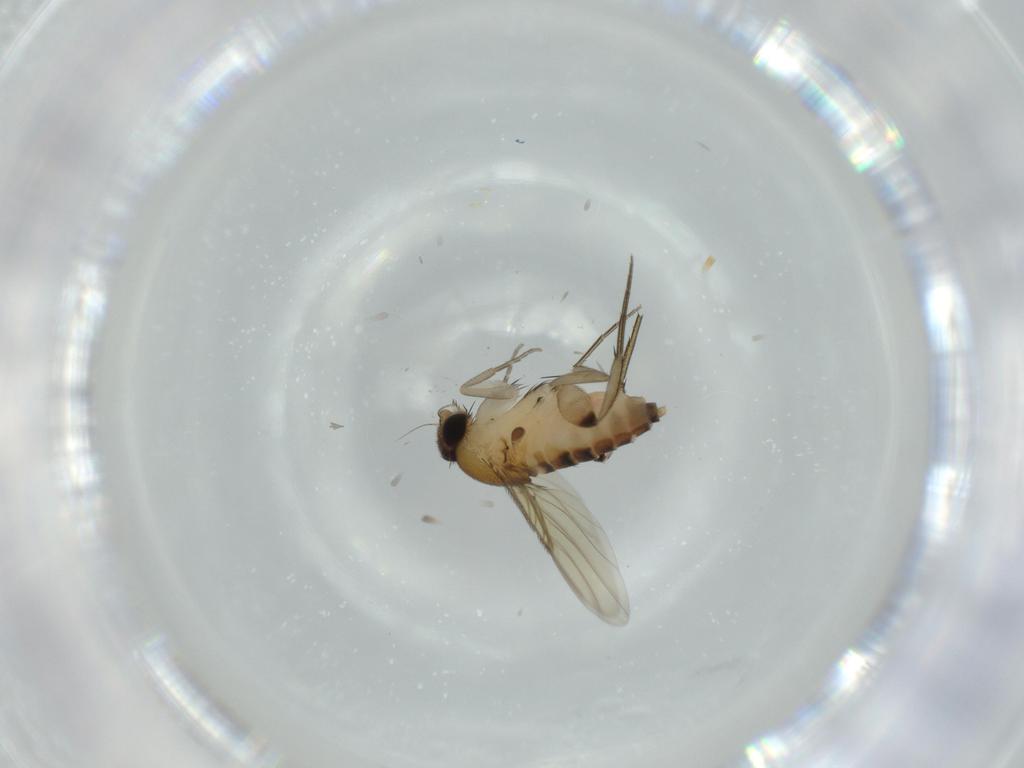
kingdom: Animalia
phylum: Arthropoda
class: Insecta
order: Diptera
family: Phoridae
